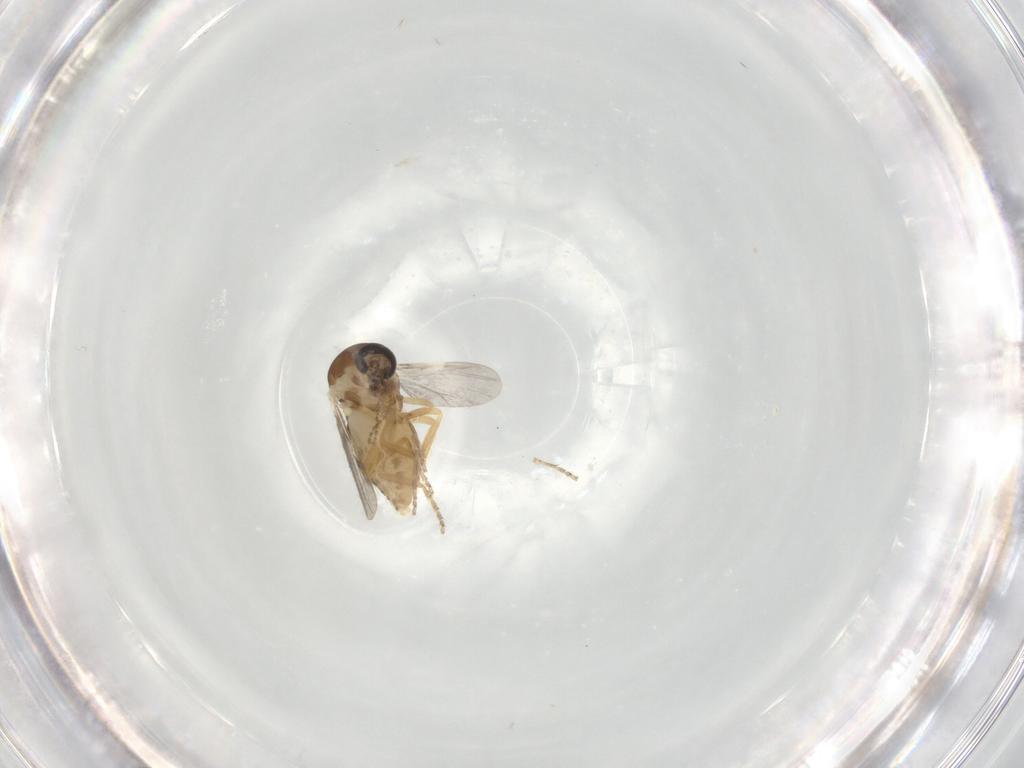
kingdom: Animalia
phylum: Arthropoda
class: Insecta
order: Diptera
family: Ceratopogonidae
